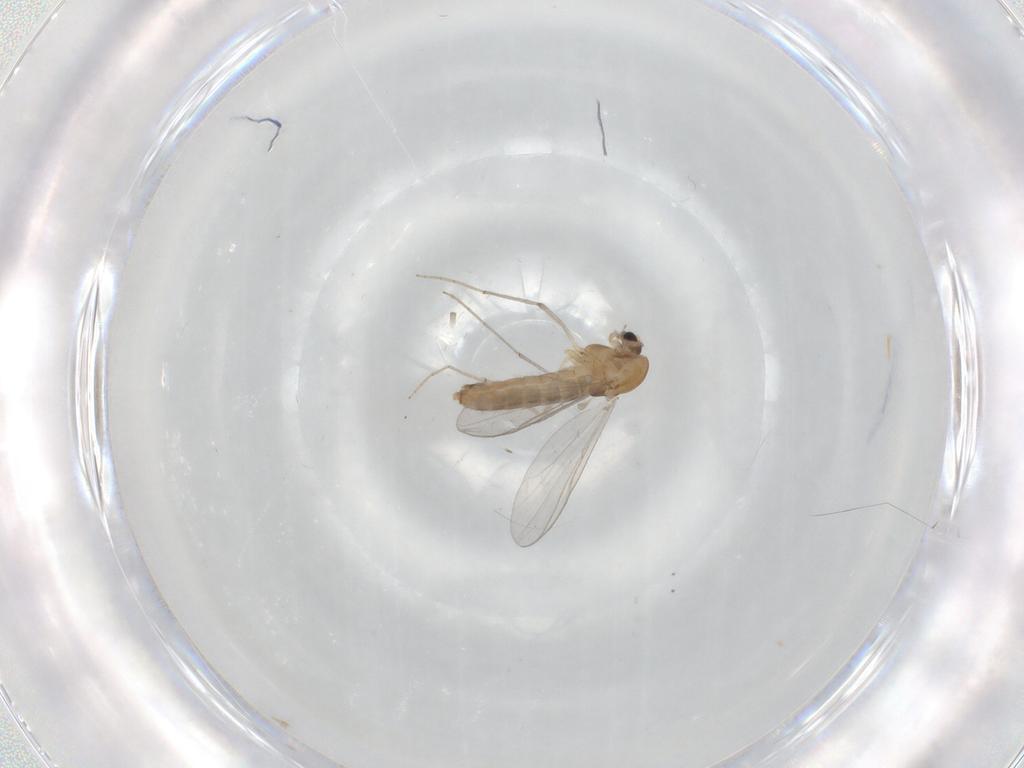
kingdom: Animalia
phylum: Arthropoda
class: Insecta
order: Diptera
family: Chironomidae
